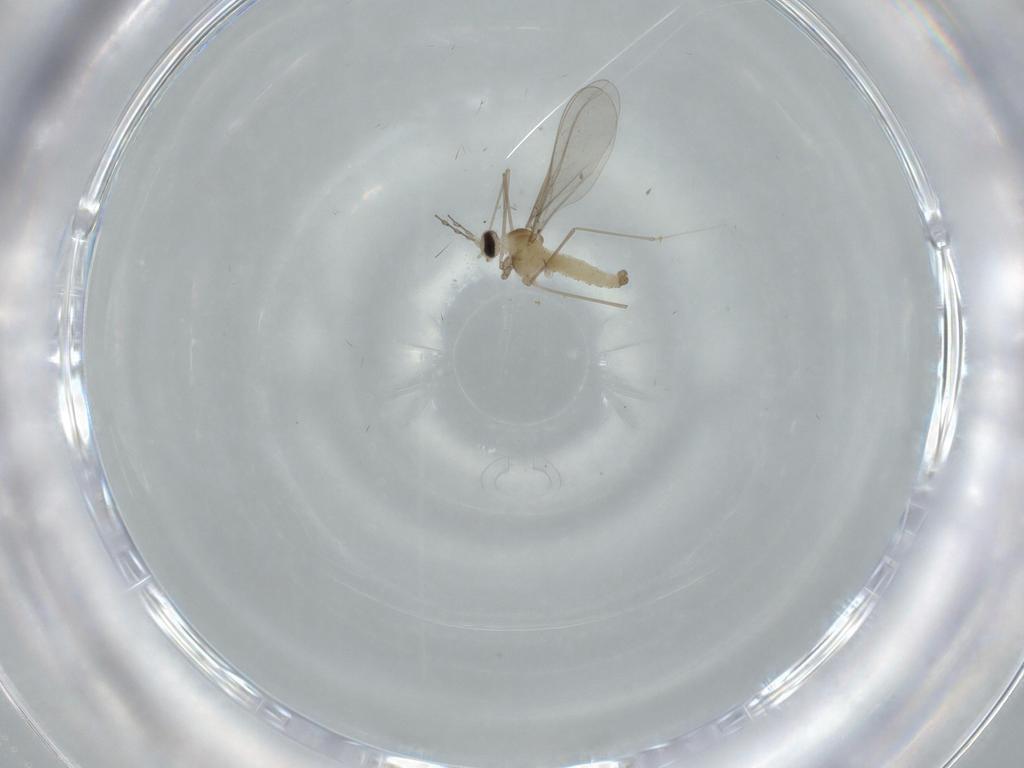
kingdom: Animalia
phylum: Arthropoda
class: Insecta
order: Diptera
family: Cecidomyiidae
